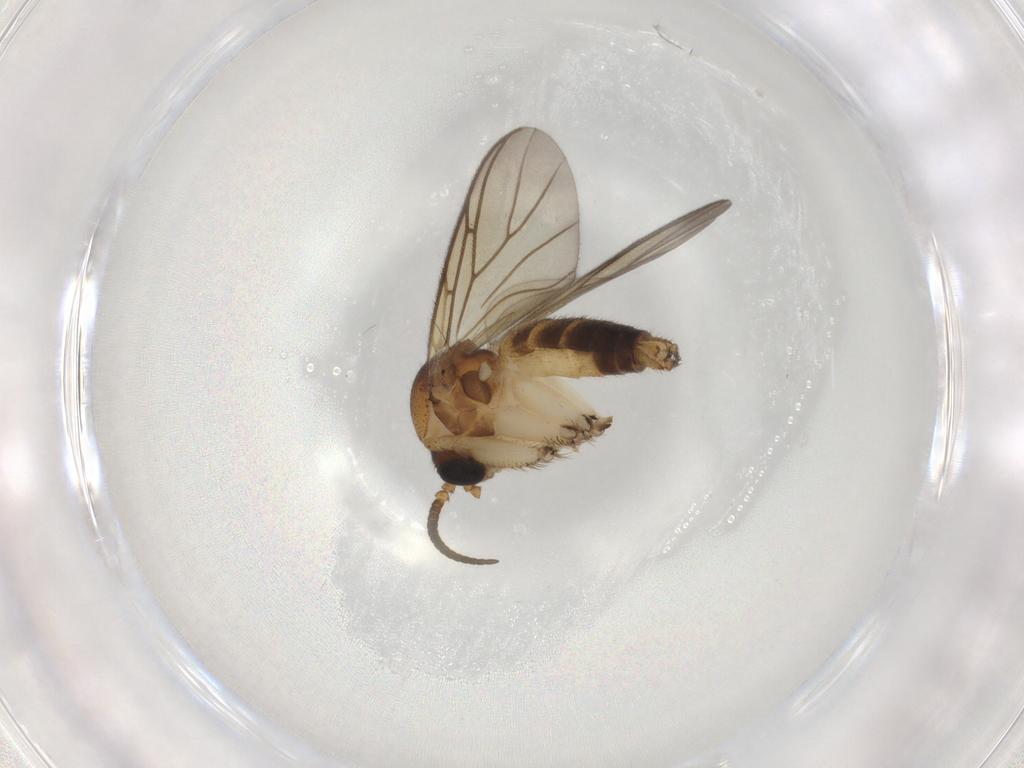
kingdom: Animalia
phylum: Arthropoda
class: Insecta
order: Diptera
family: Agromyzidae
